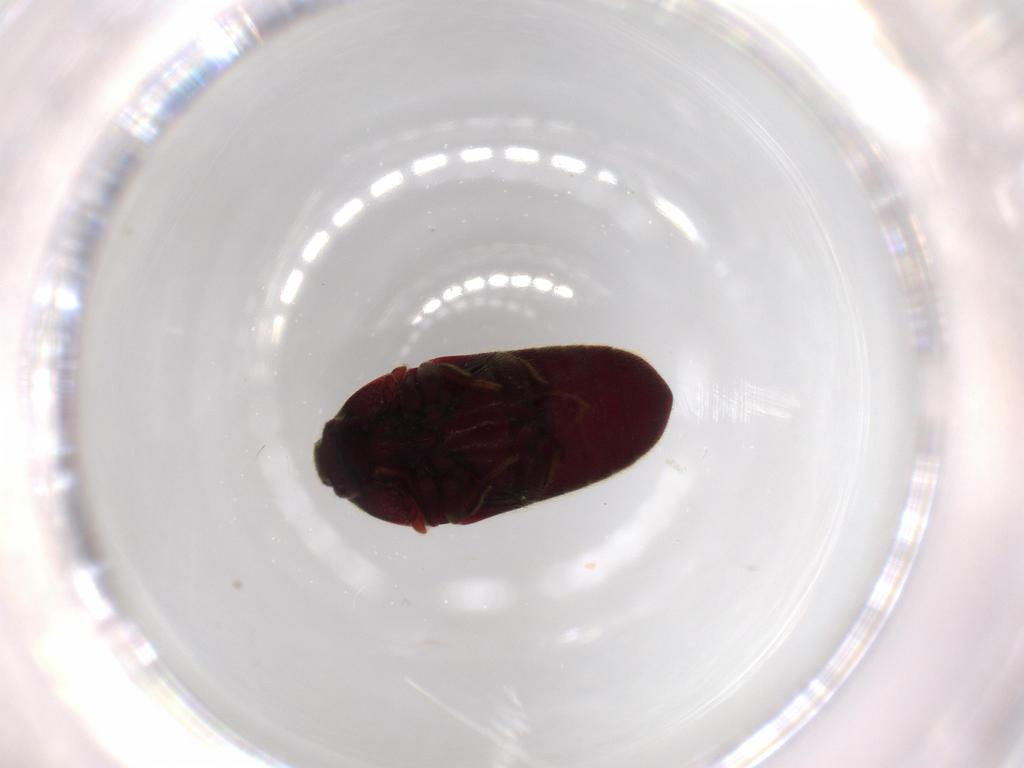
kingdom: Animalia
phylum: Arthropoda
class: Insecta
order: Coleoptera
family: Throscidae
